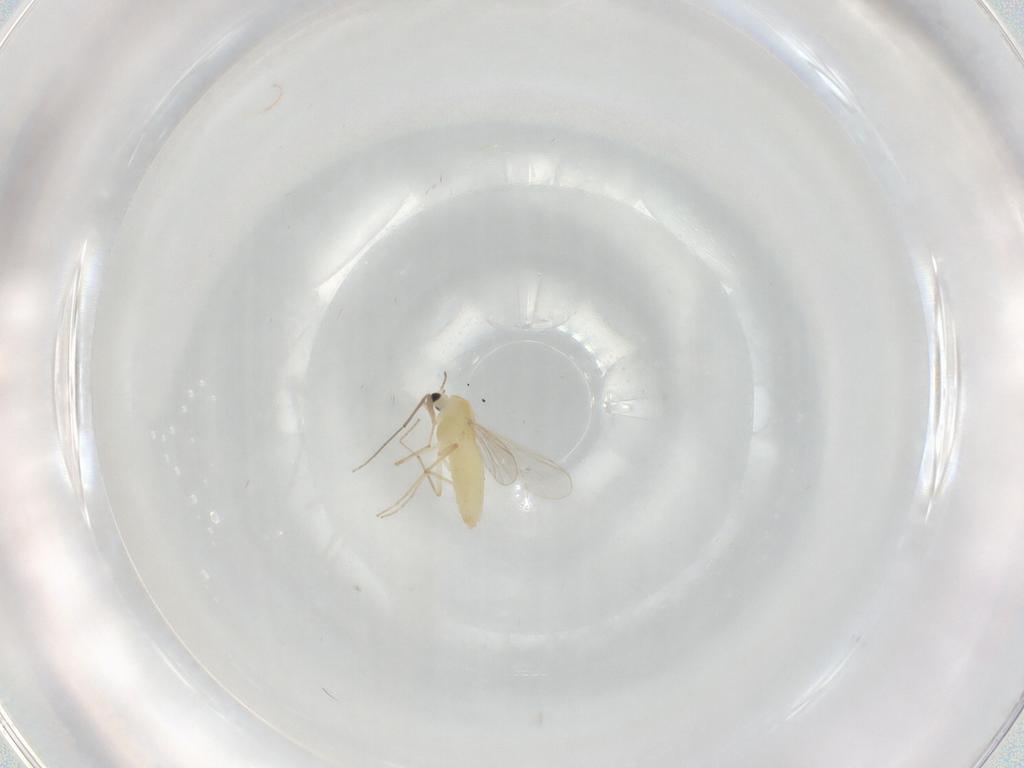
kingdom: Animalia
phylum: Arthropoda
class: Insecta
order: Diptera
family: Chironomidae
